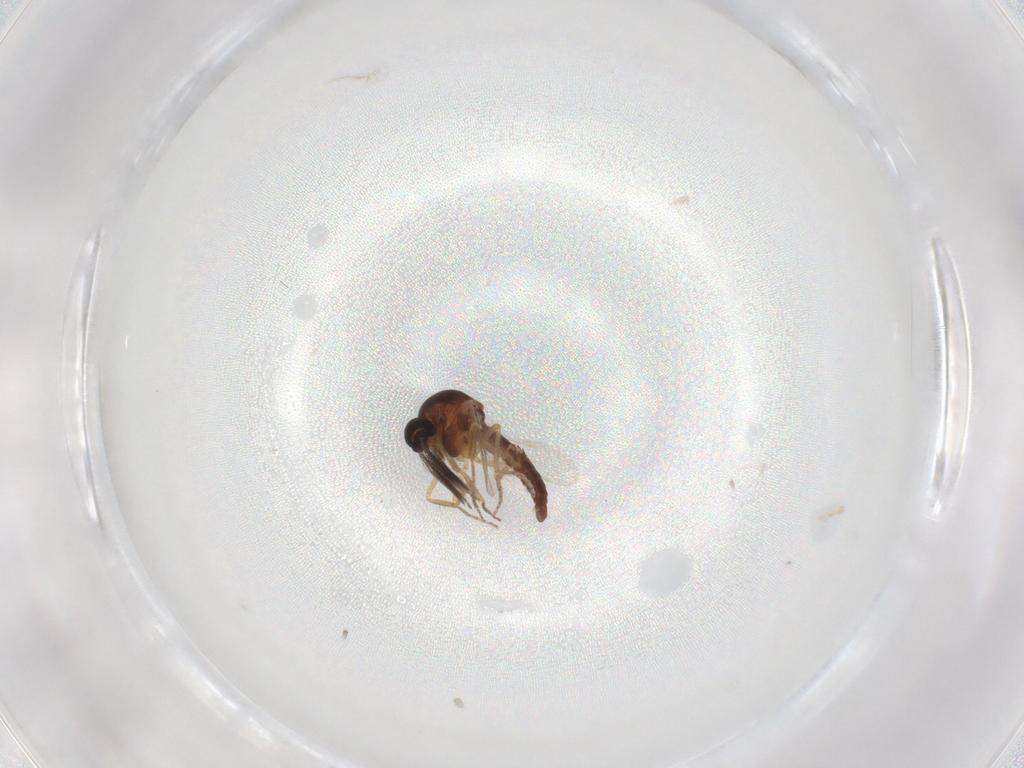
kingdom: Animalia
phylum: Arthropoda
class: Insecta
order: Diptera
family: Ceratopogonidae
